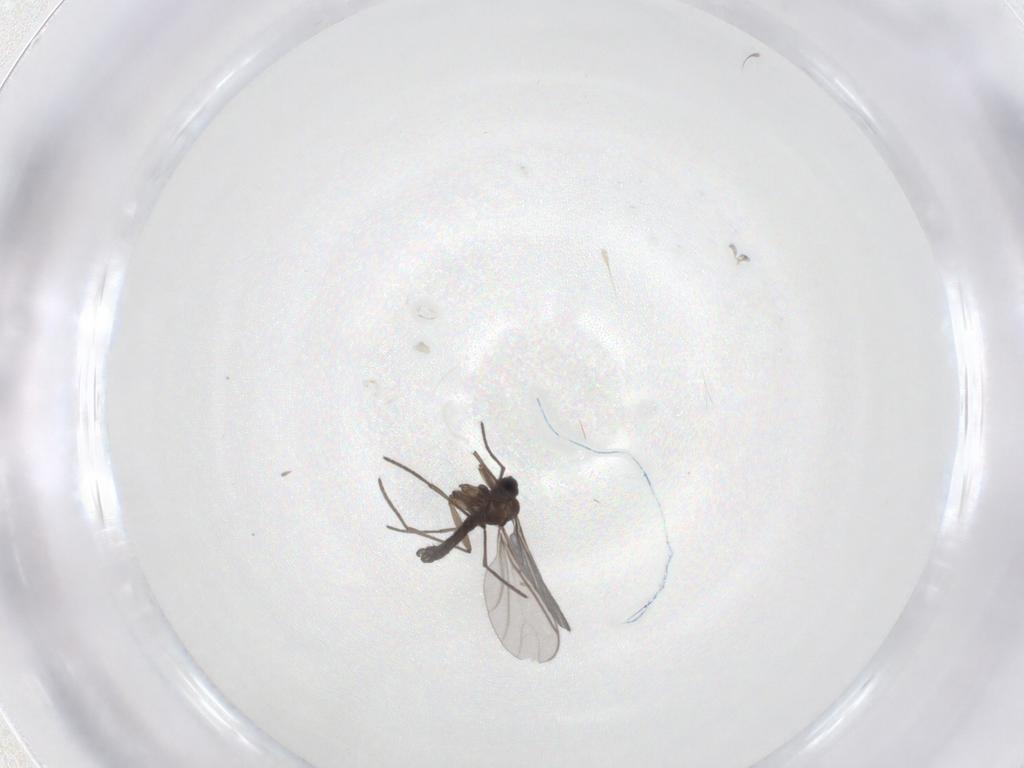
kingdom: Animalia
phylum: Arthropoda
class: Insecta
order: Diptera
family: Sciaridae
